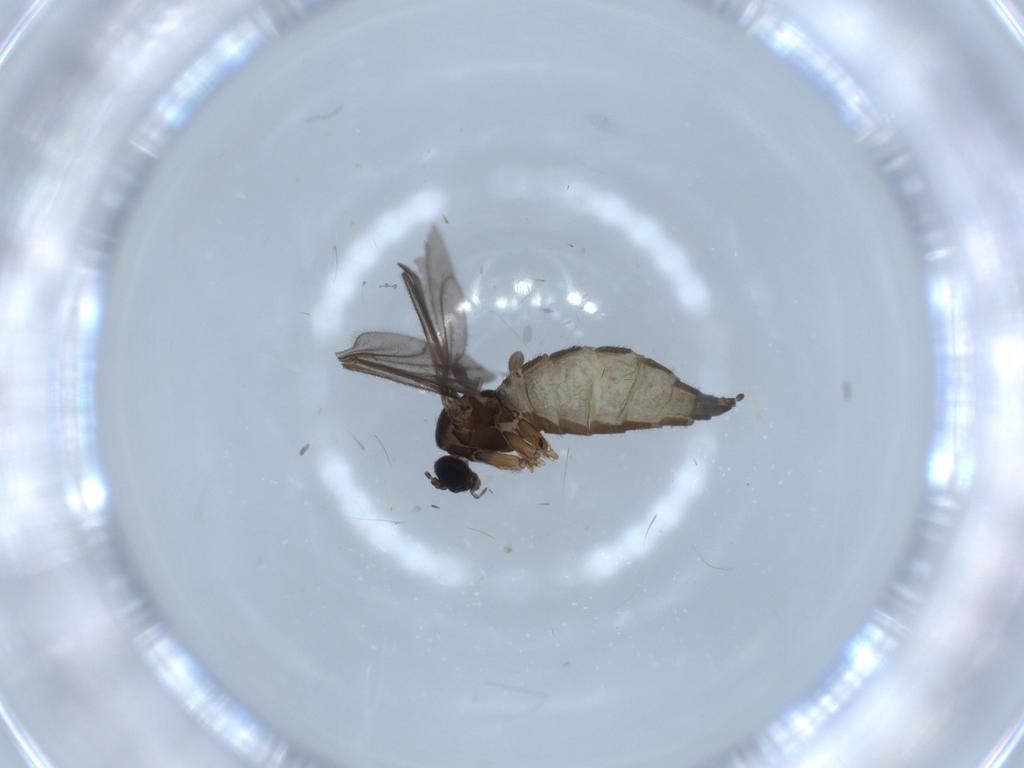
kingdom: Animalia
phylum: Arthropoda
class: Insecta
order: Diptera
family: Sciaridae
